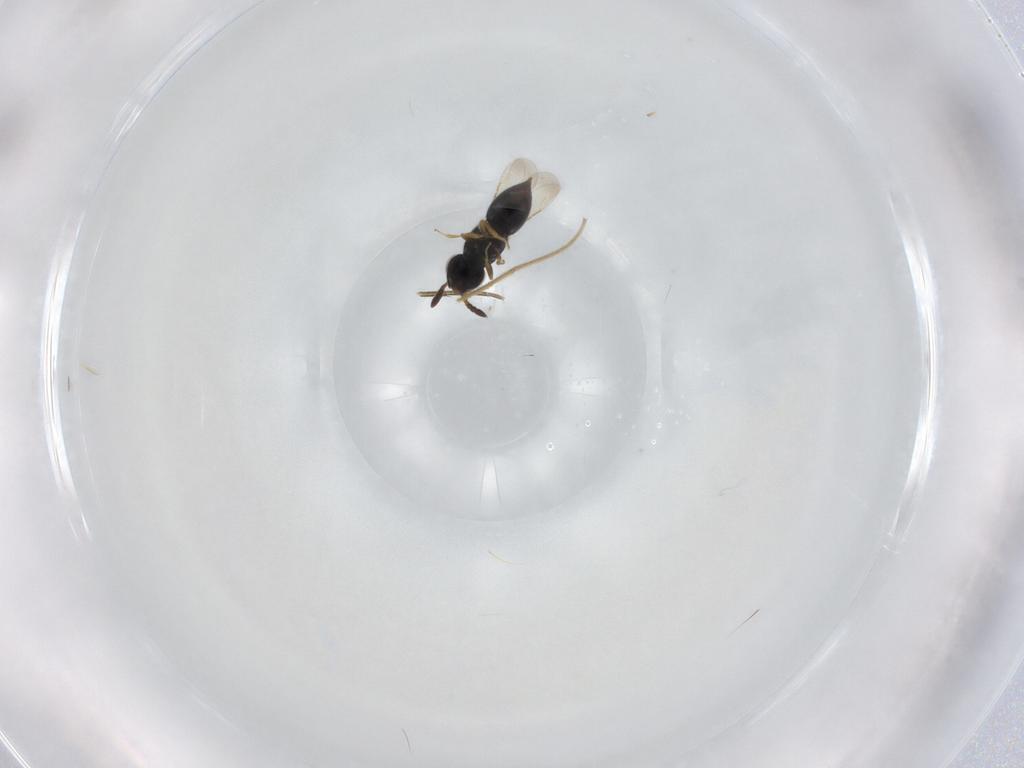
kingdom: Animalia
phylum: Arthropoda
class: Insecta
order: Hymenoptera
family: Ceraphronidae
